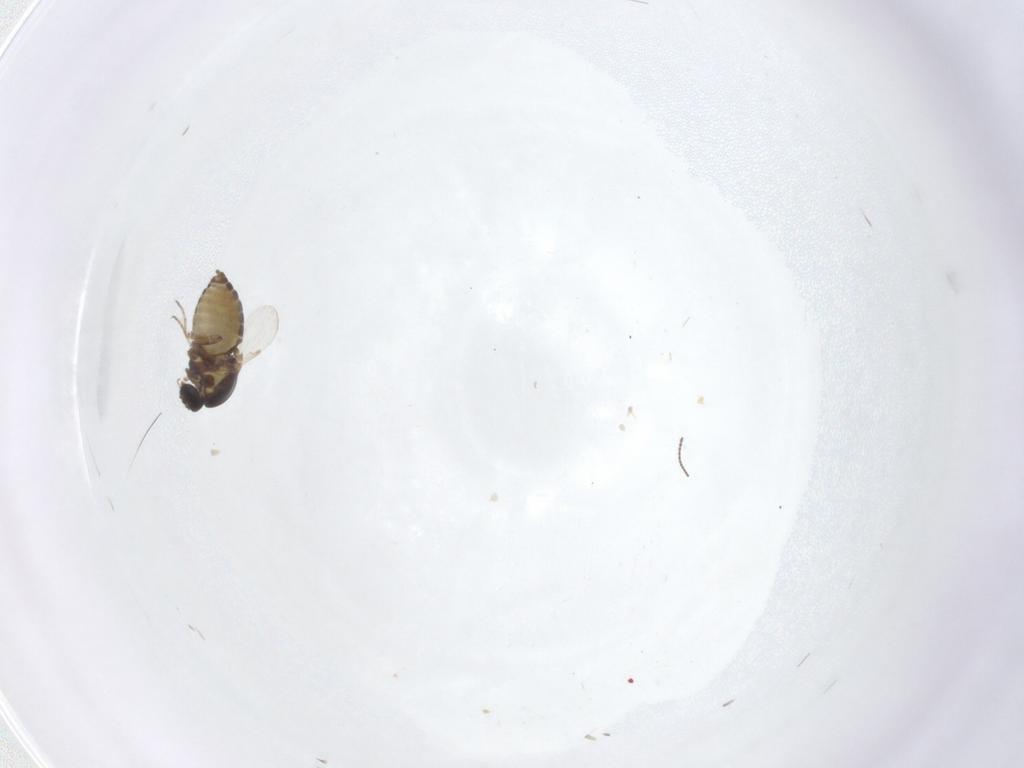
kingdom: Animalia
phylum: Arthropoda
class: Insecta
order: Diptera
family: Ceratopogonidae
